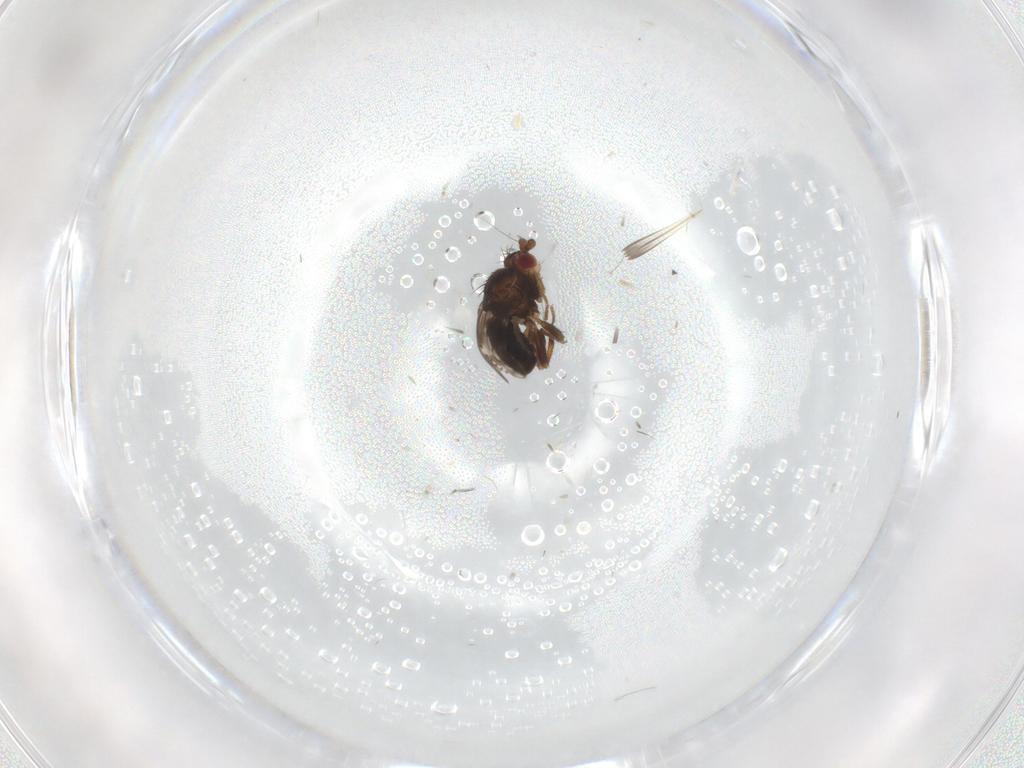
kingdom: Animalia
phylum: Arthropoda
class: Insecta
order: Diptera
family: Sphaeroceridae
